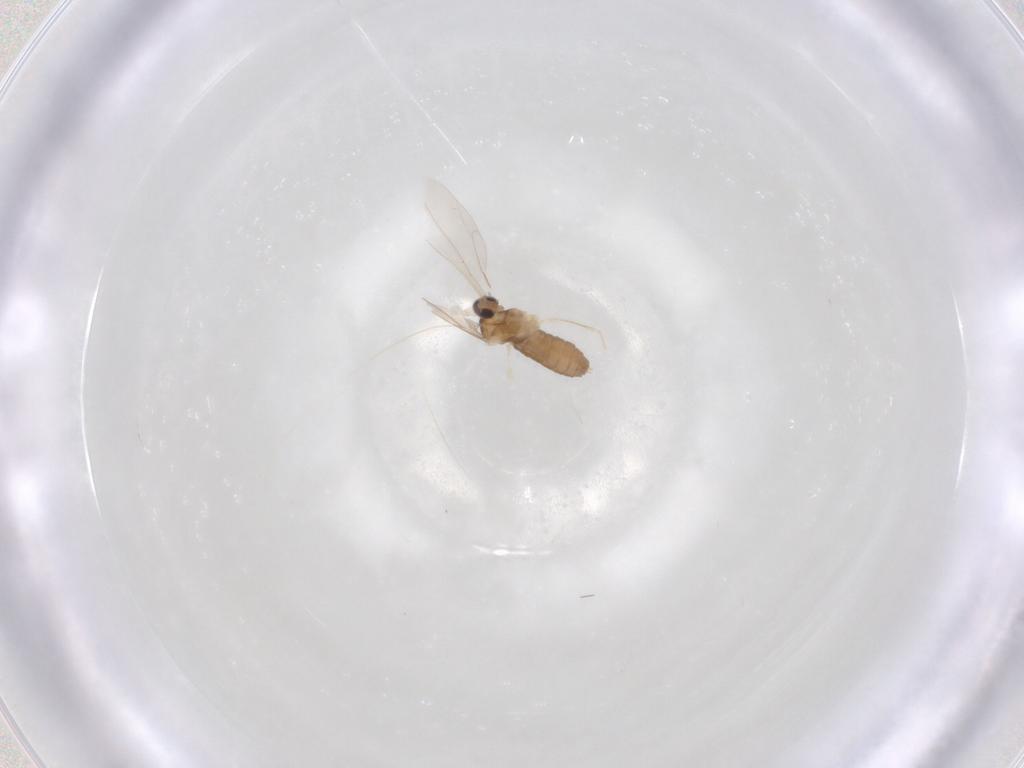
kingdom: Animalia
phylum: Arthropoda
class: Insecta
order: Diptera
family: Cecidomyiidae
